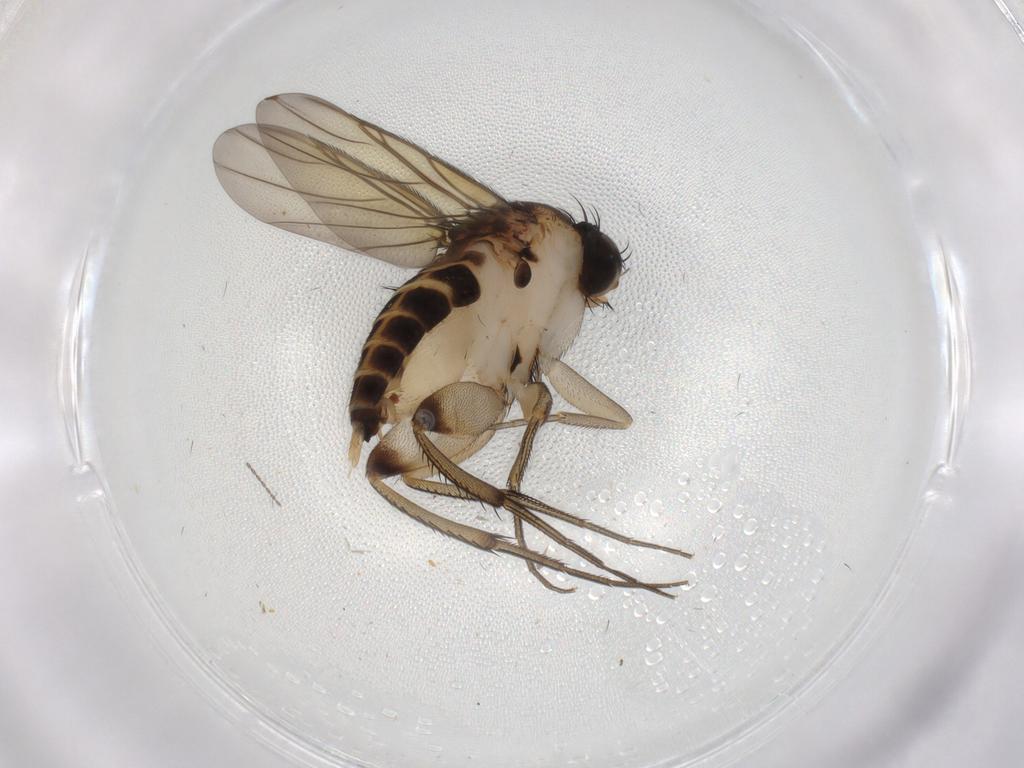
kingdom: Animalia
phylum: Arthropoda
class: Insecta
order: Diptera
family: Phoridae
